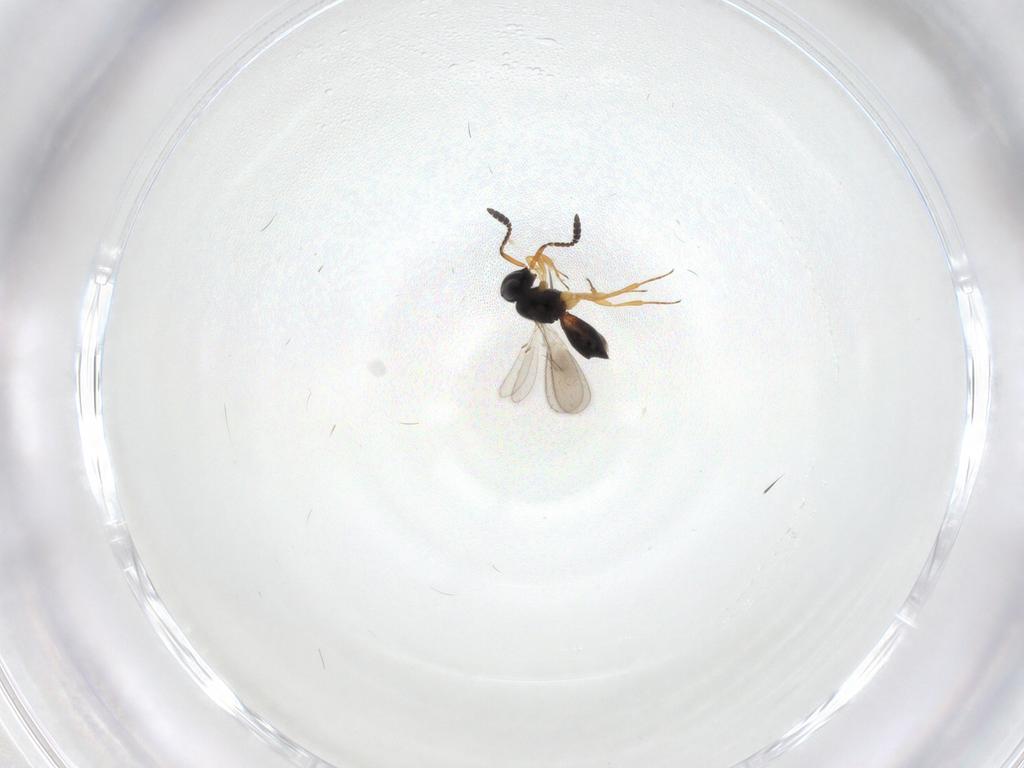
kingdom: Animalia
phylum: Arthropoda
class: Insecta
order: Hymenoptera
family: Scelionidae
